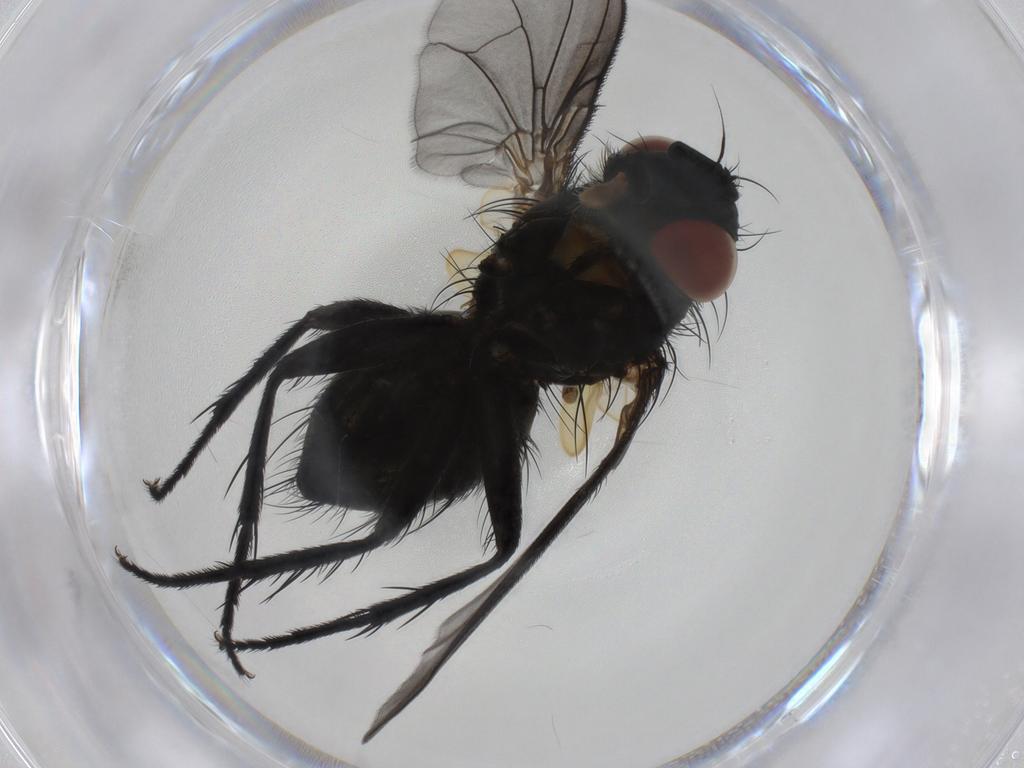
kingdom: Animalia
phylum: Arthropoda
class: Insecta
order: Diptera
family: Tachinidae
